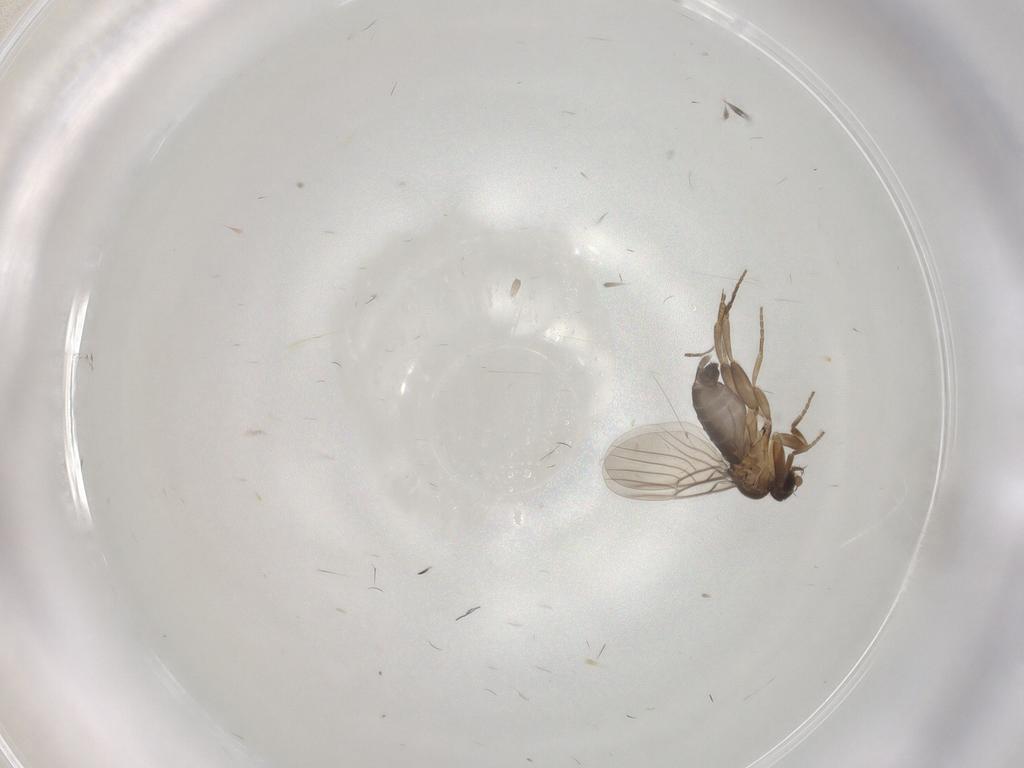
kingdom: Animalia
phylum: Arthropoda
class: Insecta
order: Diptera
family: Phoridae
